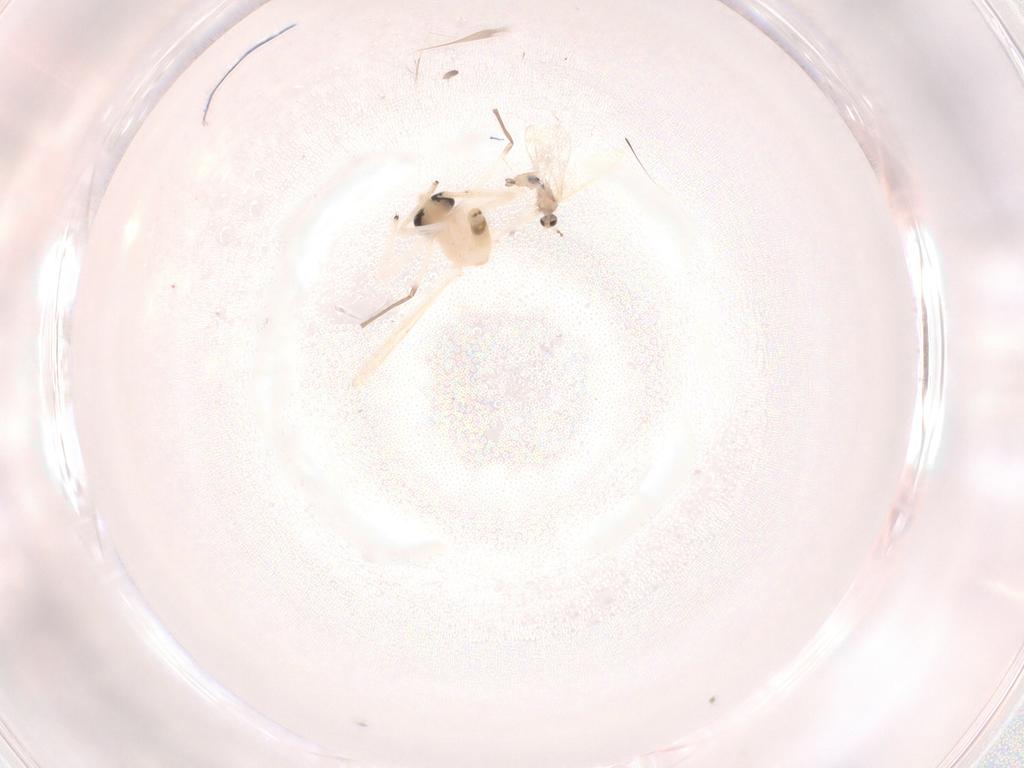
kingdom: Animalia
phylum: Arthropoda
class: Insecta
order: Diptera
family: Chironomidae
